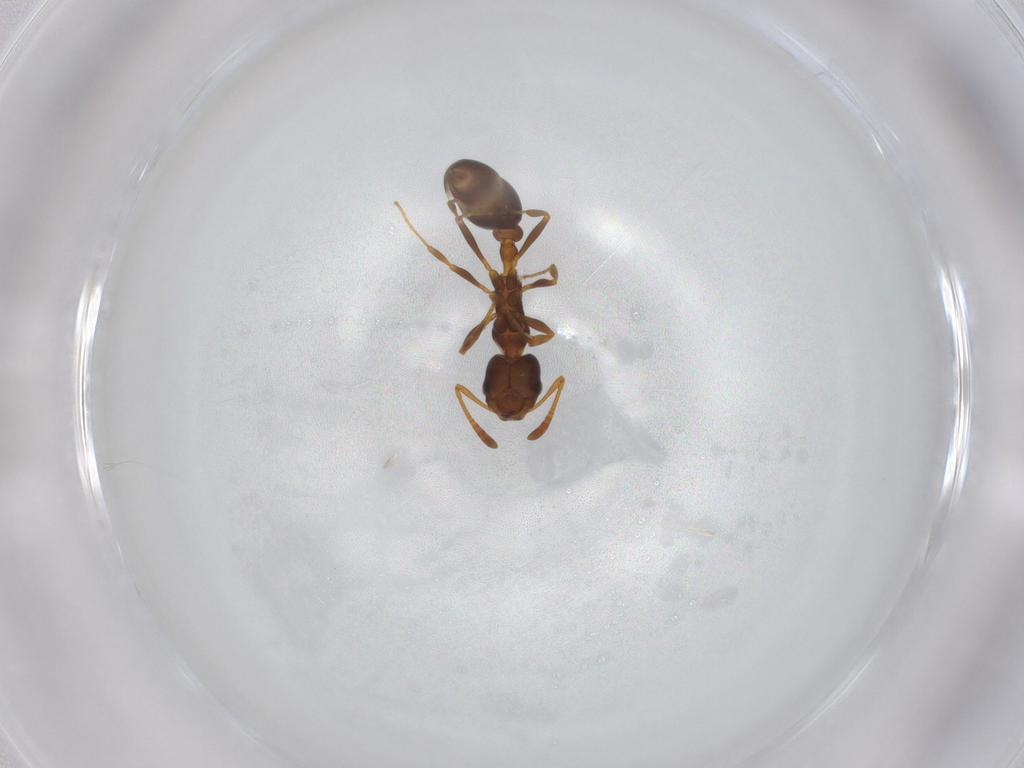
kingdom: Animalia
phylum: Arthropoda
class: Insecta
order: Hymenoptera
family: Formicidae
